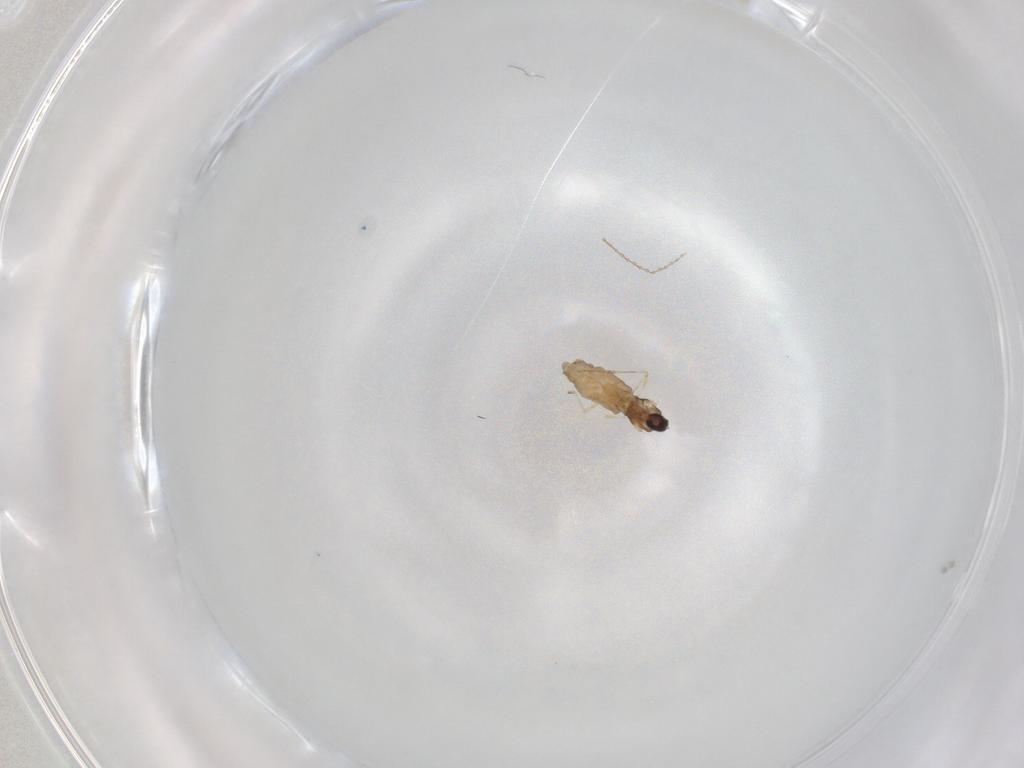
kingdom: Animalia
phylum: Arthropoda
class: Insecta
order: Diptera
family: Cecidomyiidae
